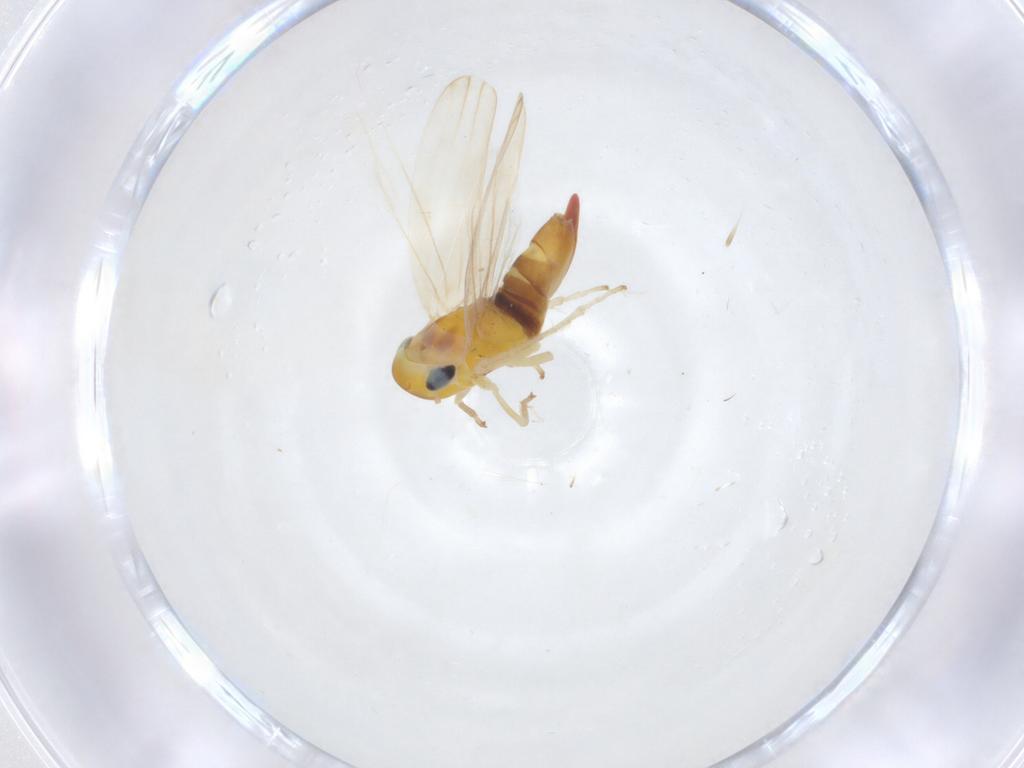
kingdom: Animalia
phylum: Arthropoda
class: Insecta
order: Hemiptera
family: Cicadellidae
